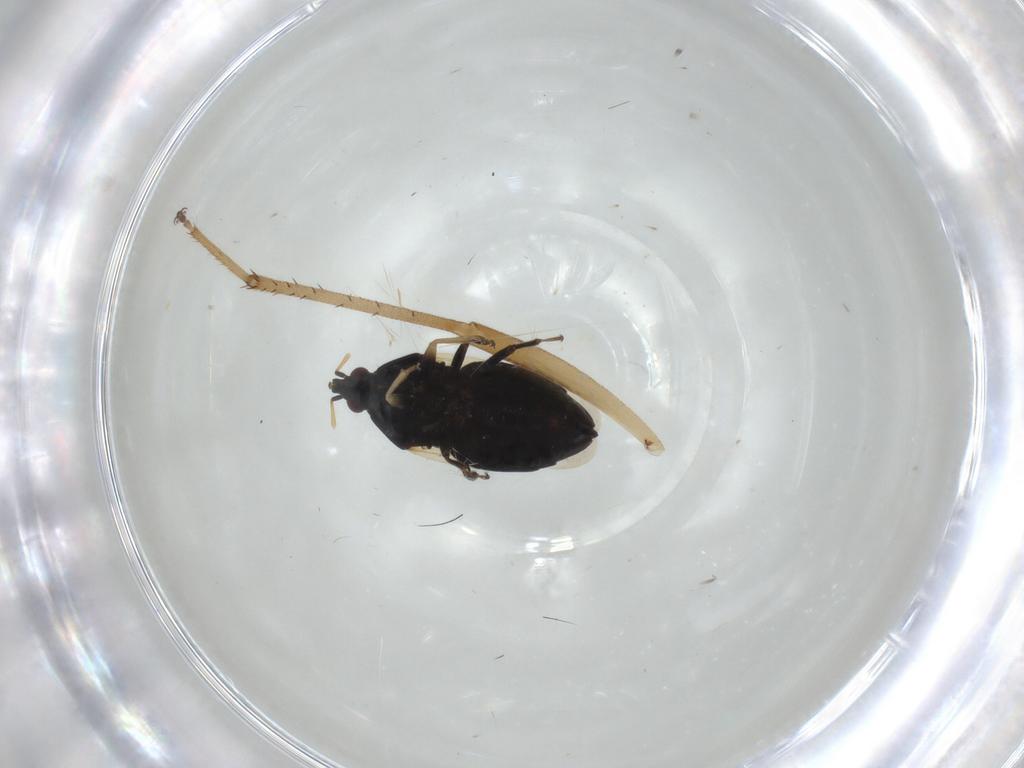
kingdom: Animalia
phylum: Arthropoda
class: Insecta
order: Hemiptera
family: Rhyparochromidae
